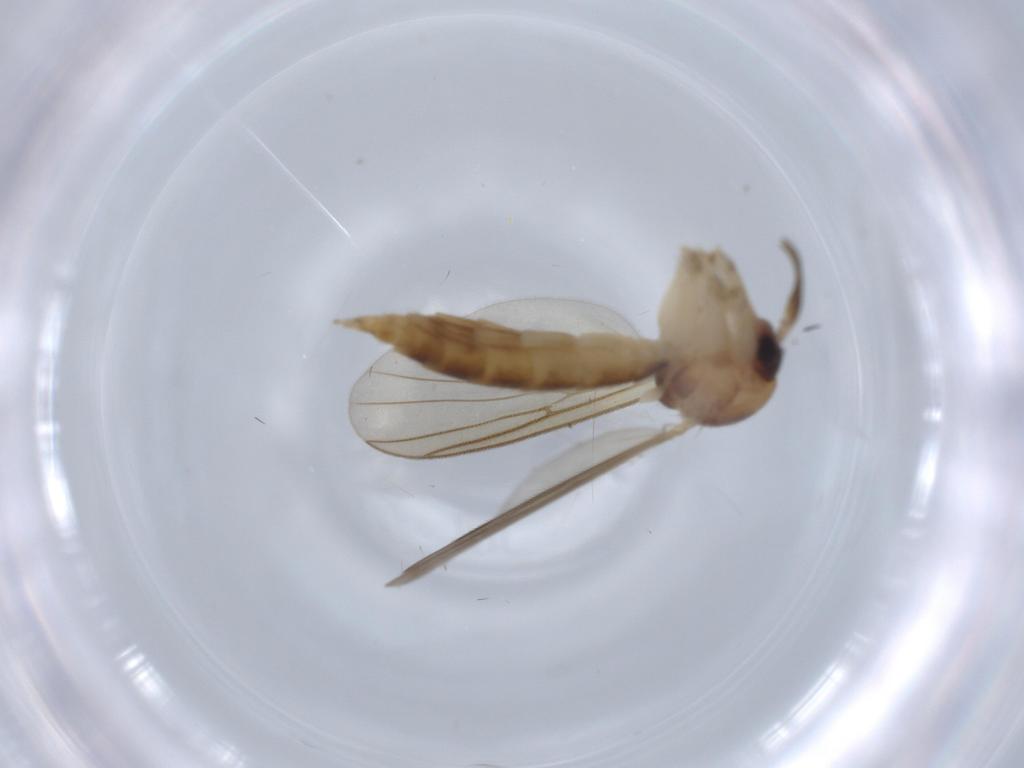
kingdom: Animalia
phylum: Arthropoda
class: Insecta
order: Diptera
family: Mycetophilidae
